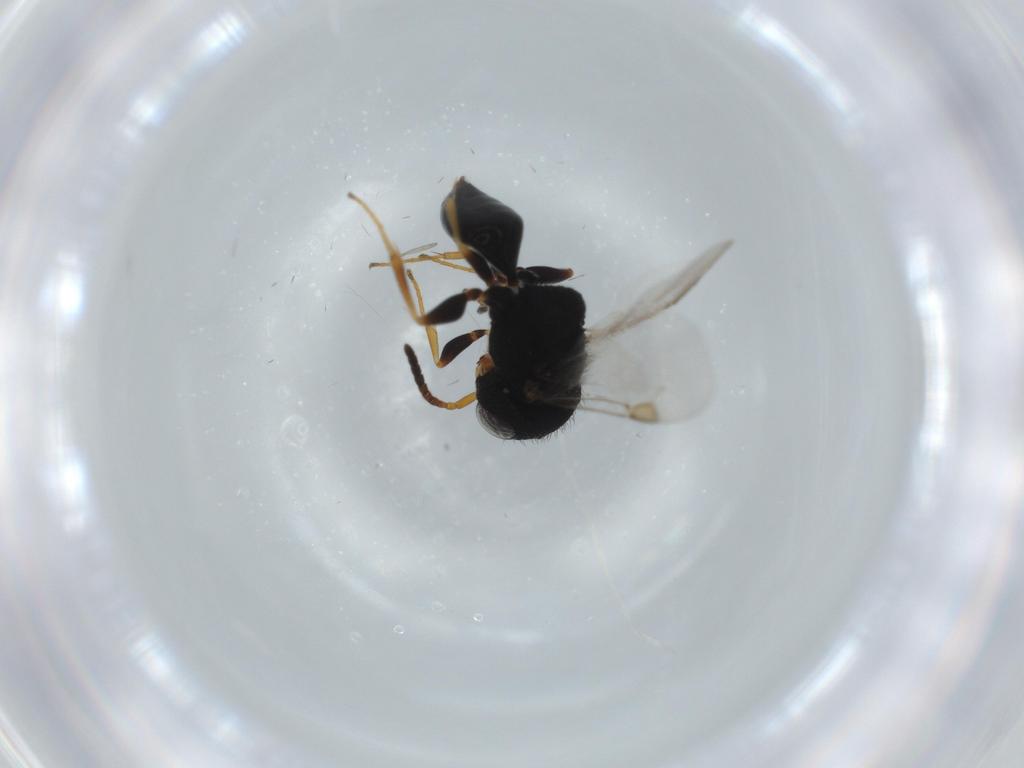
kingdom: Animalia
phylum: Arthropoda
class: Insecta
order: Hymenoptera
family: Dryinidae
